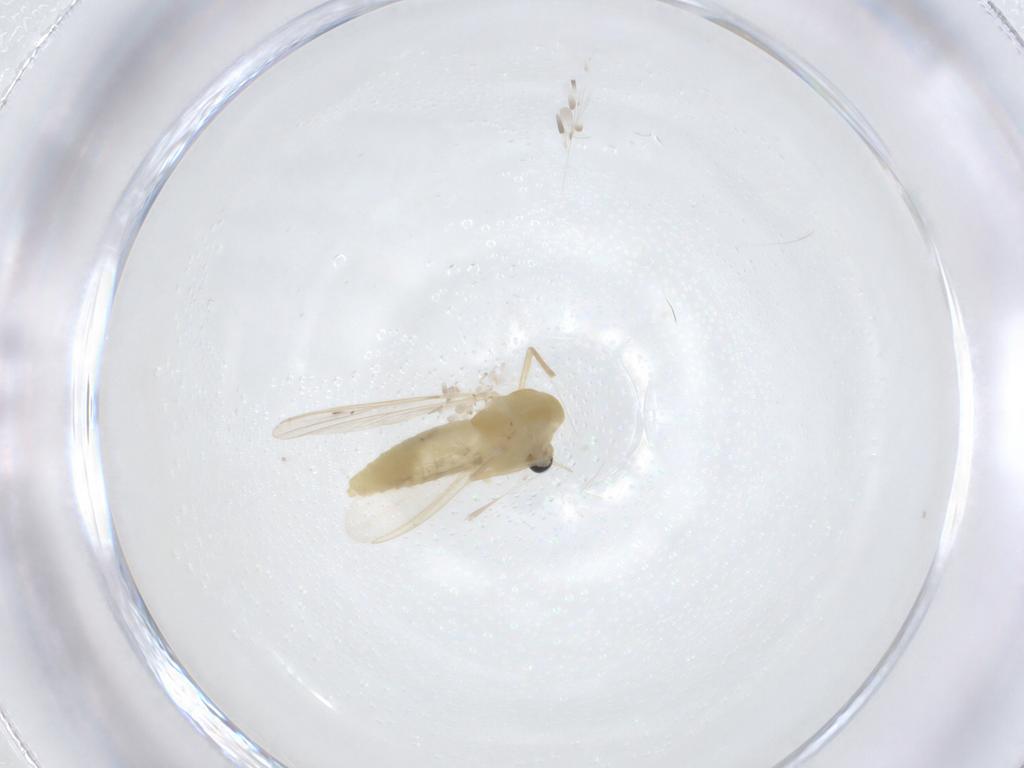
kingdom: Animalia
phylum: Arthropoda
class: Insecta
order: Diptera
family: Chironomidae
